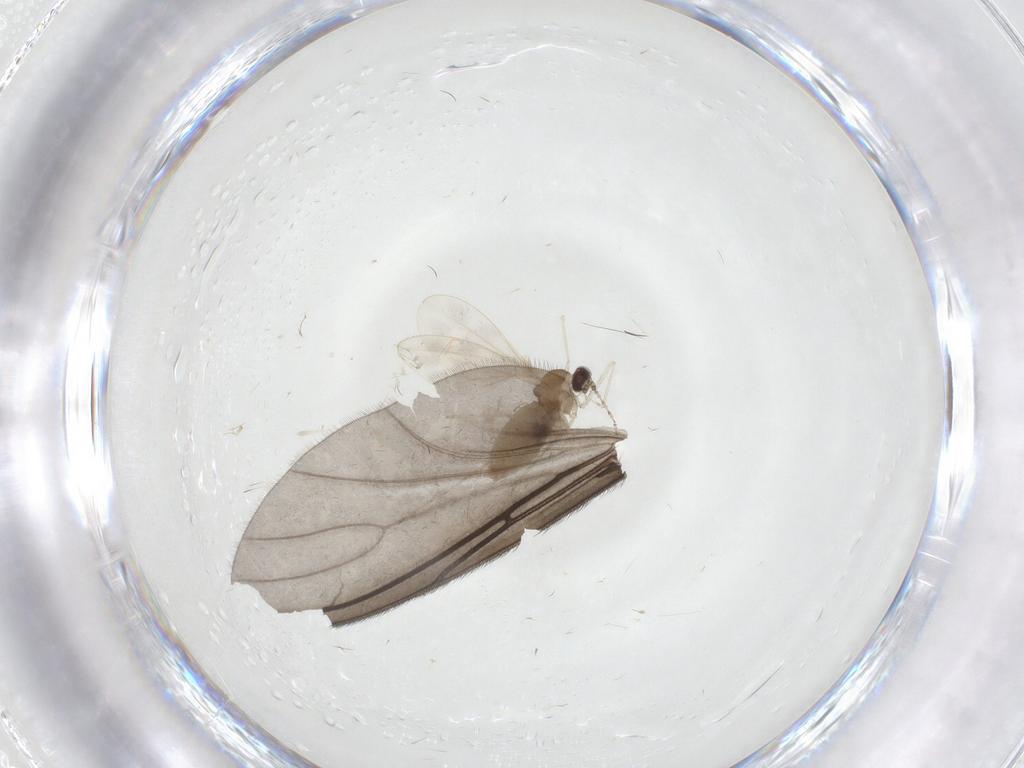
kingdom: Animalia
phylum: Arthropoda
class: Insecta
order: Diptera
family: Cecidomyiidae
